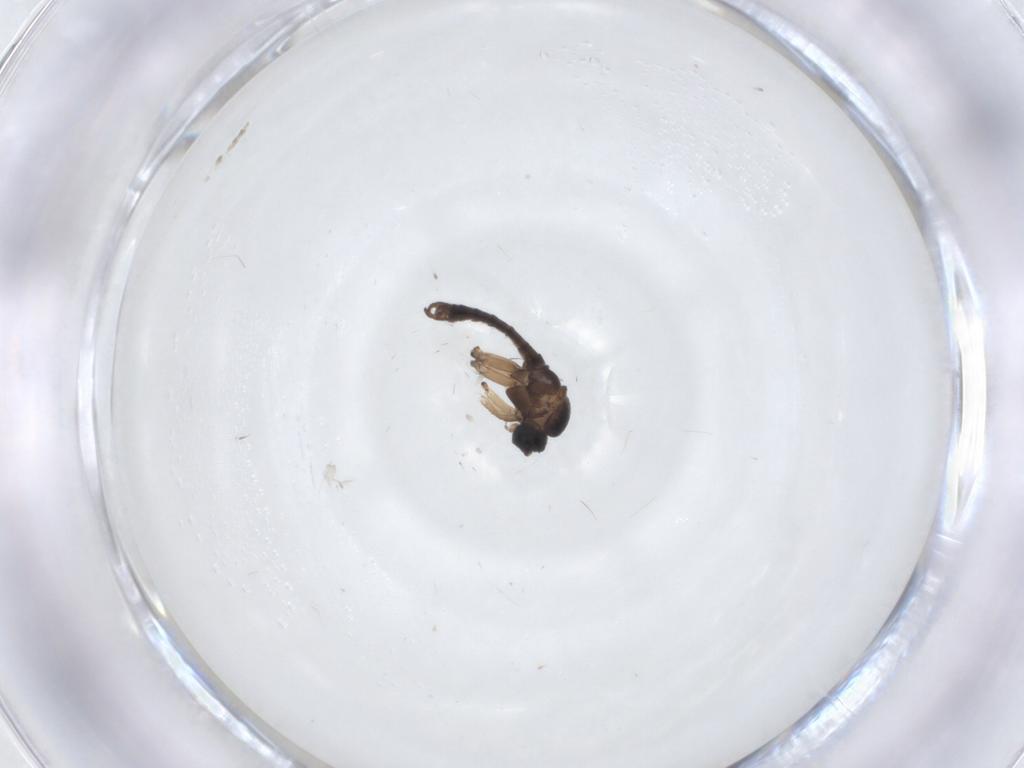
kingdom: Animalia
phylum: Arthropoda
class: Insecta
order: Diptera
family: Sciaridae
